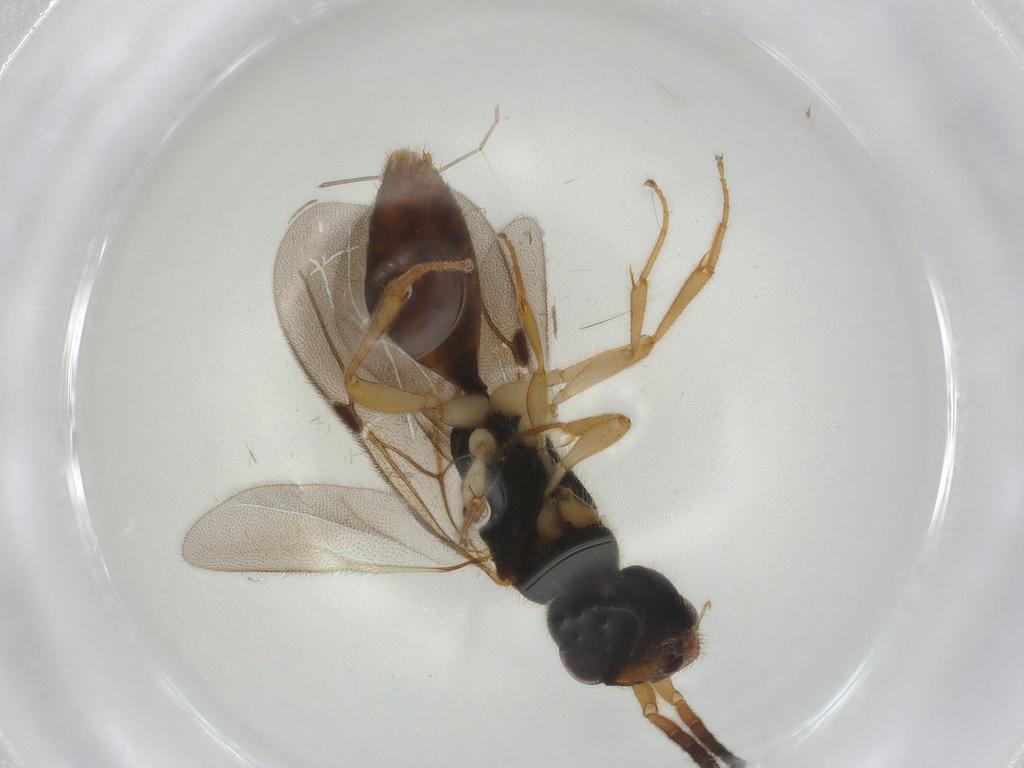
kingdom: Animalia
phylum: Arthropoda
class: Insecta
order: Hymenoptera
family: Bethylidae
